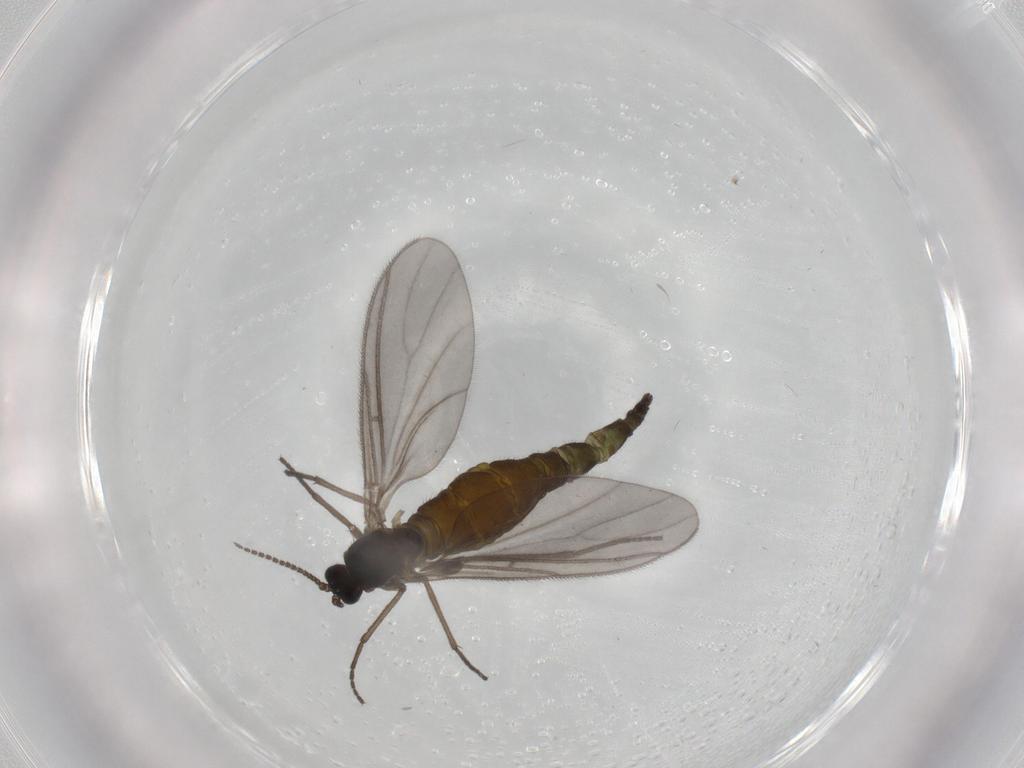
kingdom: Animalia
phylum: Arthropoda
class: Insecta
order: Diptera
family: Sciaridae
